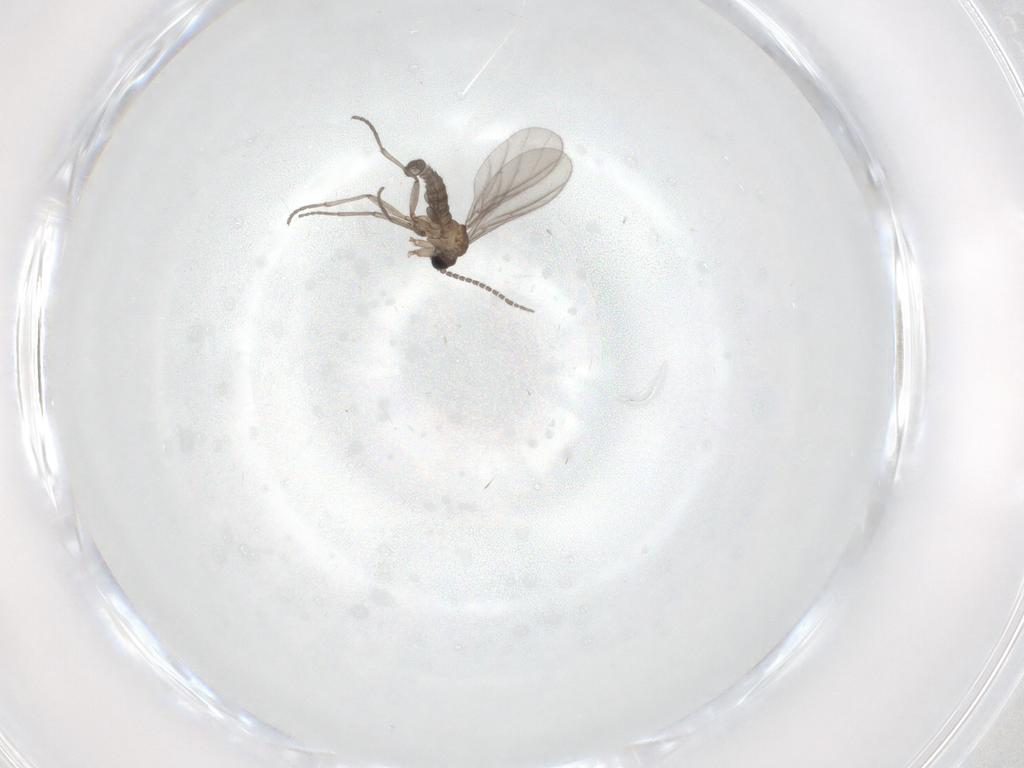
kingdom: Animalia
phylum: Arthropoda
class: Insecta
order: Diptera
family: Sciaridae
